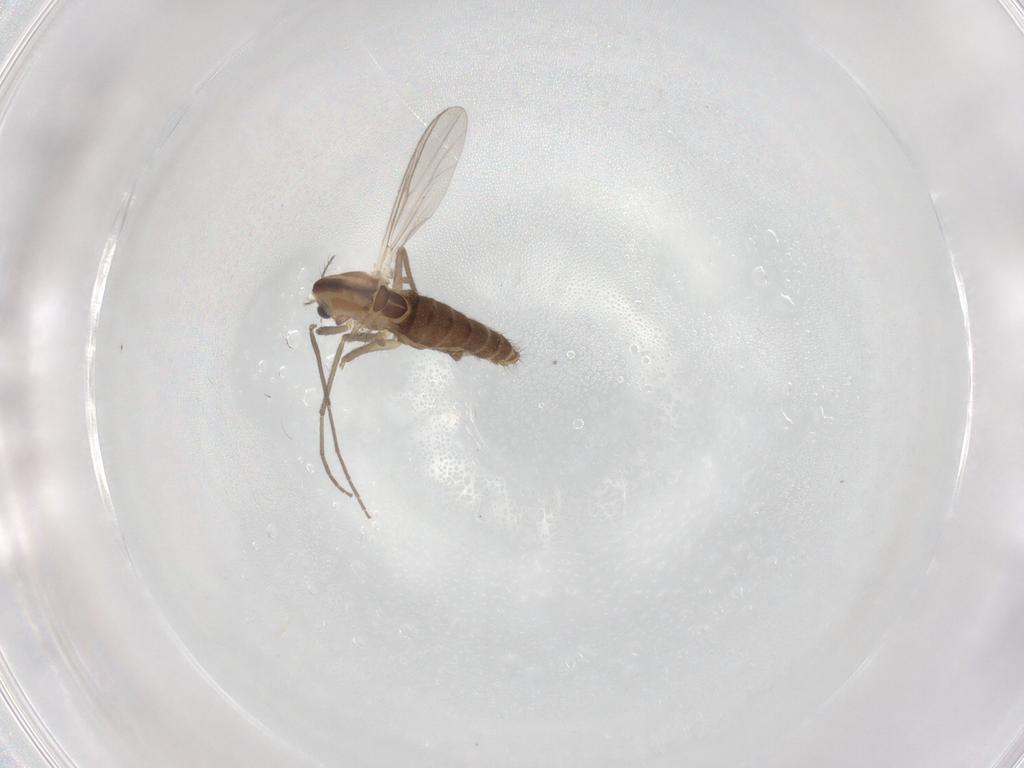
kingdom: Animalia
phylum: Arthropoda
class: Insecta
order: Diptera
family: Chironomidae
